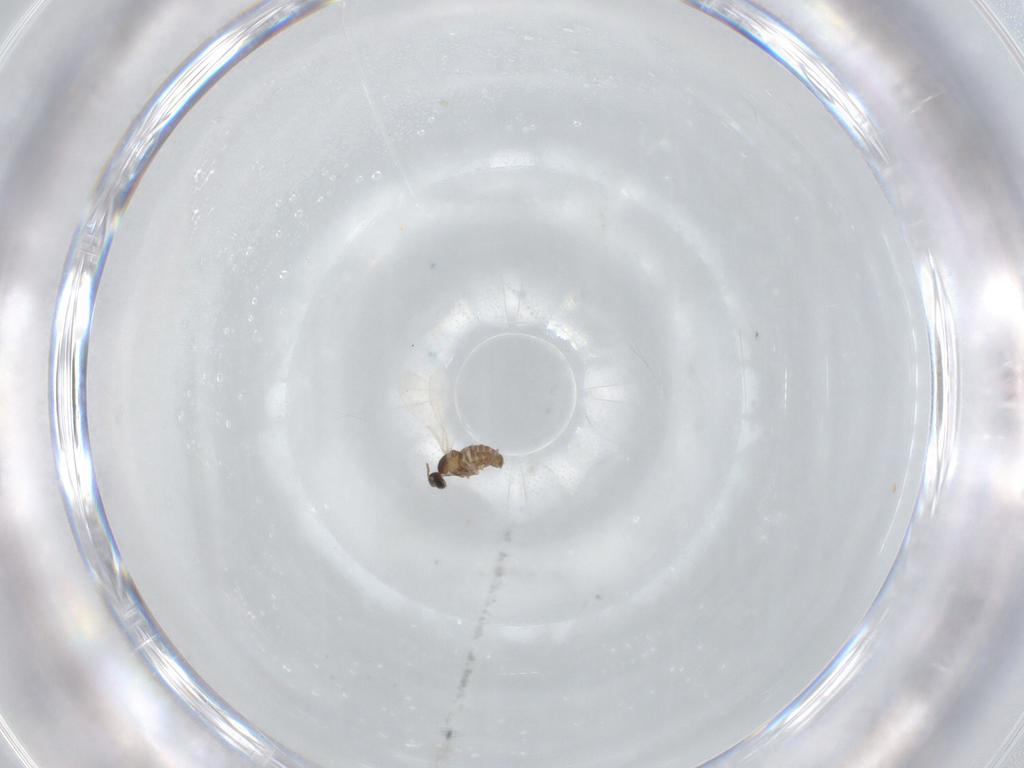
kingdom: Animalia
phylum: Arthropoda
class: Insecta
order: Diptera
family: Cecidomyiidae
